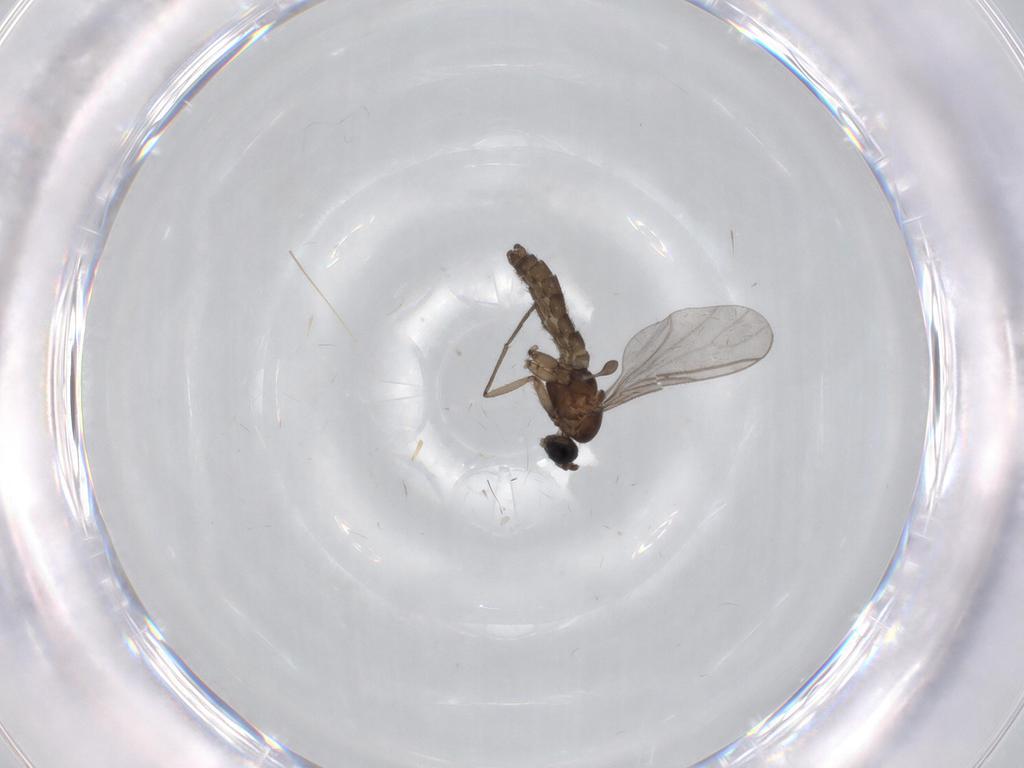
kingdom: Animalia
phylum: Arthropoda
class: Insecta
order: Diptera
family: Sciaridae
